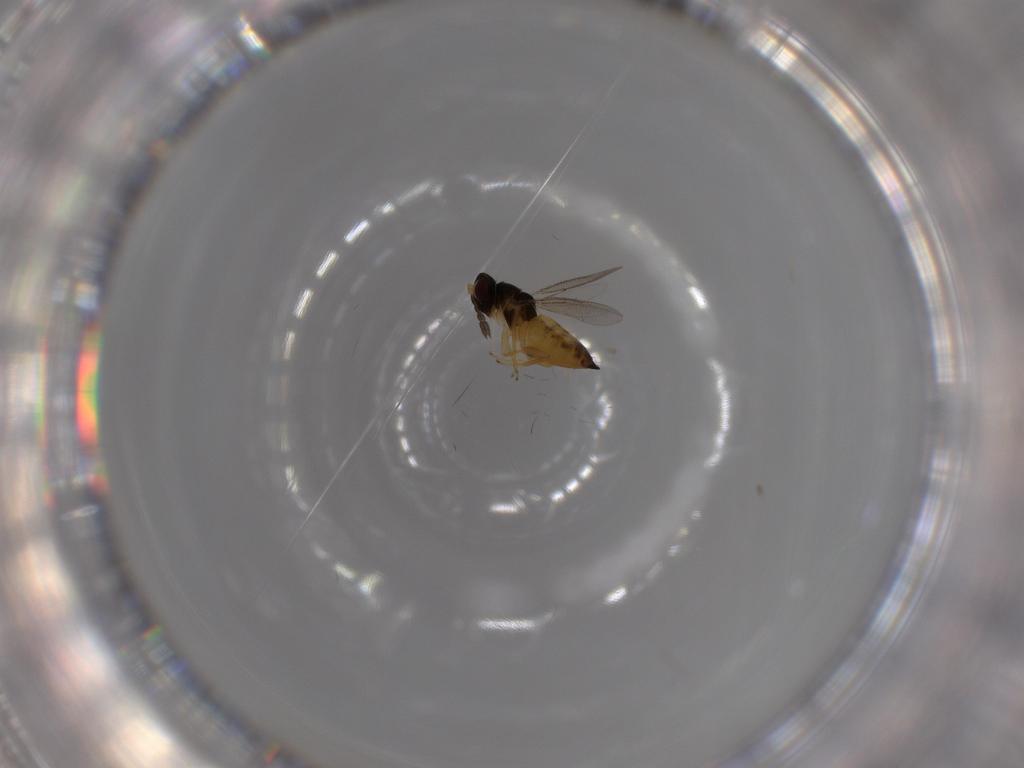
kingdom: Animalia
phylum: Arthropoda
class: Insecta
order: Hymenoptera
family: Eulophidae
